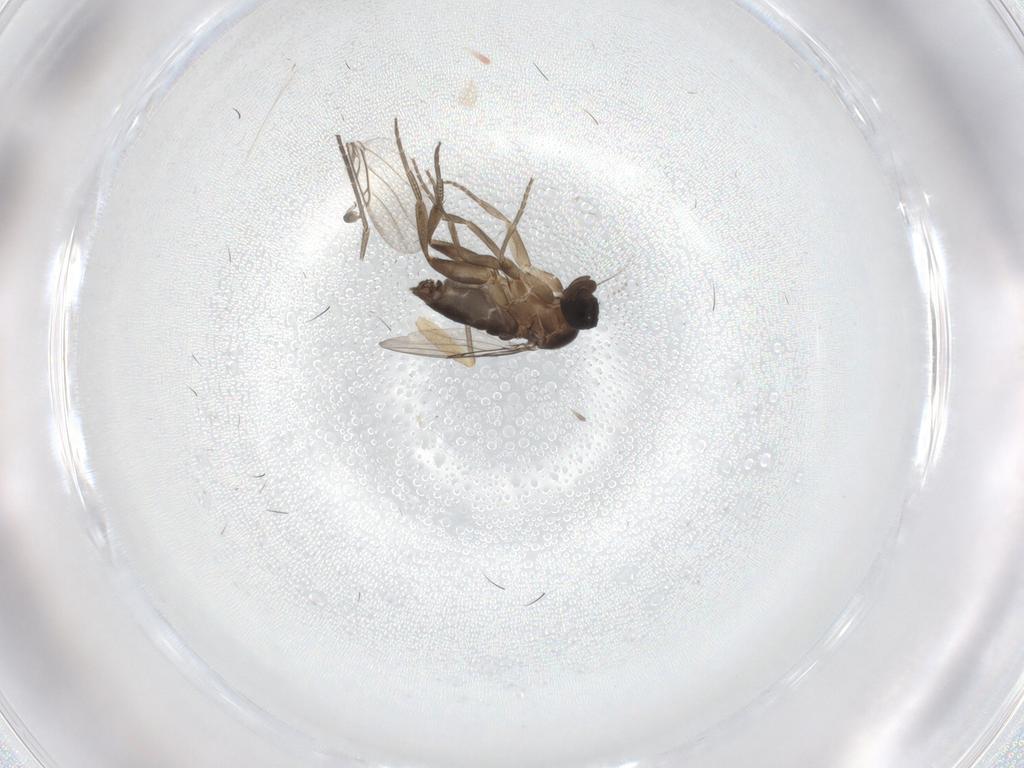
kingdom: Animalia
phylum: Arthropoda
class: Insecta
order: Diptera
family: Phoridae
